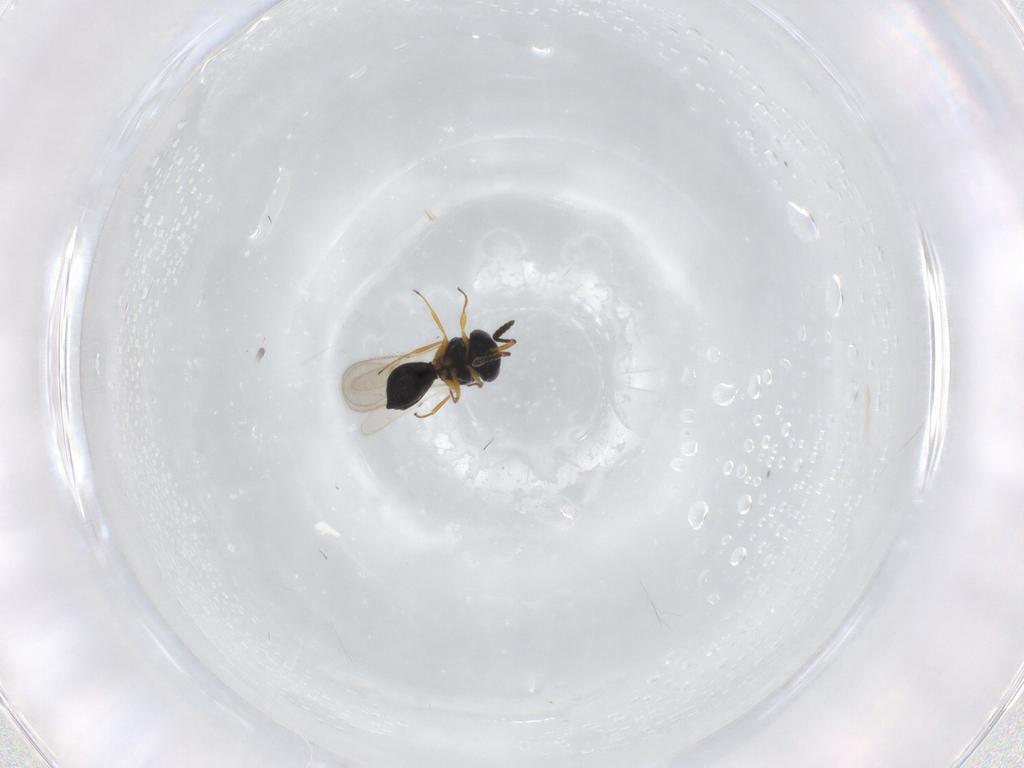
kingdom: Animalia
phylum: Arthropoda
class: Insecta
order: Hymenoptera
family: Scelionidae
